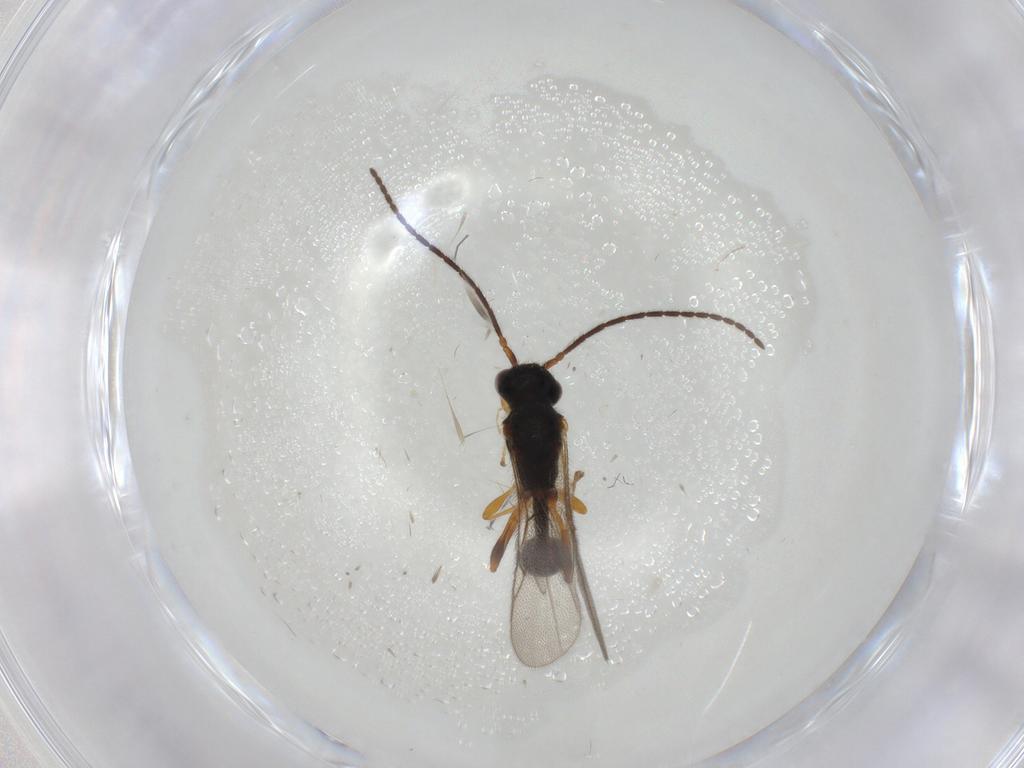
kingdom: Animalia
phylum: Arthropoda
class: Insecta
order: Hymenoptera
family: Diapriidae
